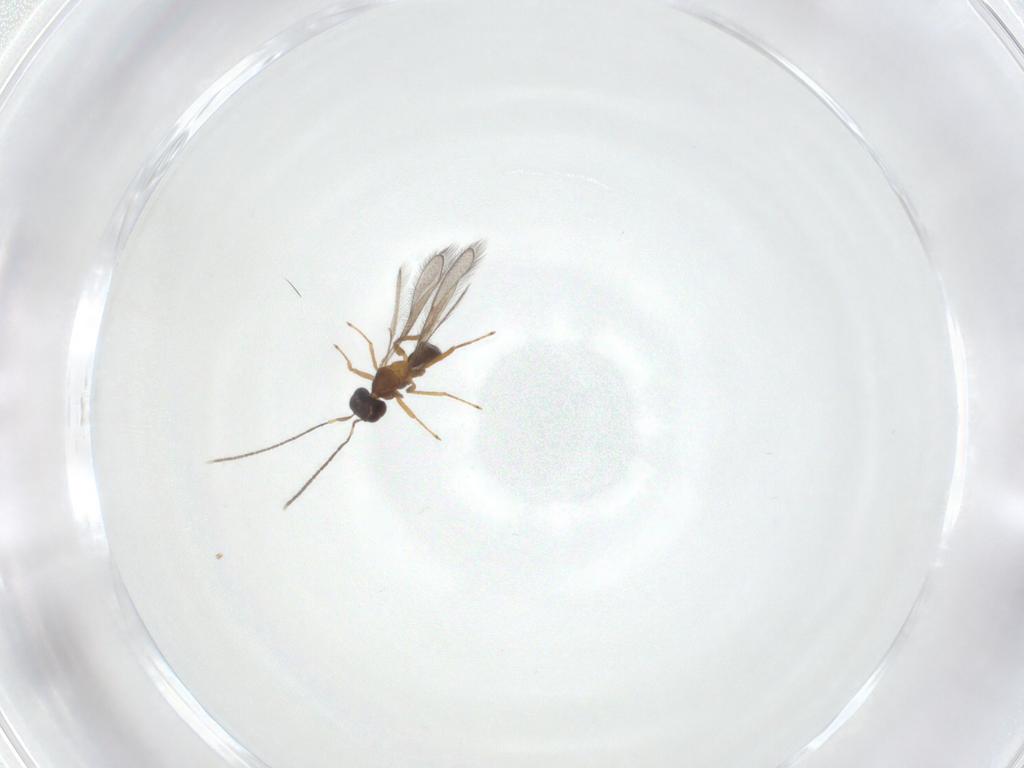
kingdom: Animalia
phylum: Arthropoda
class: Insecta
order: Hymenoptera
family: Mymaridae
